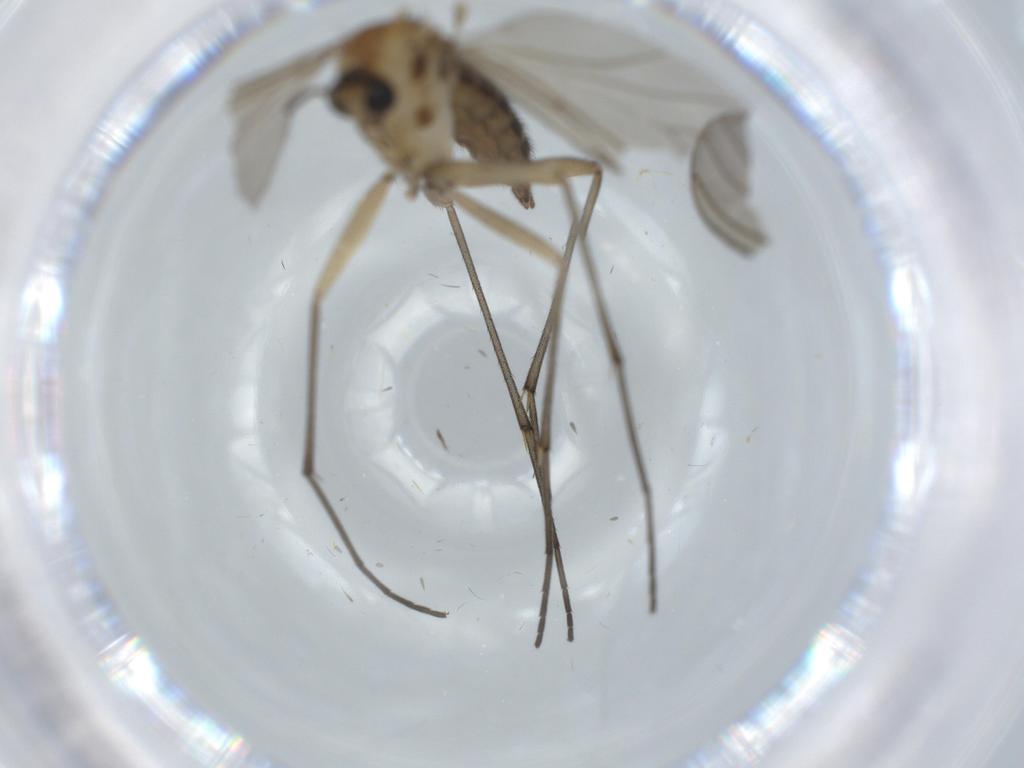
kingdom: Animalia
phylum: Arthropoda
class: Insecta
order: Diptera
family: Sciaridae
